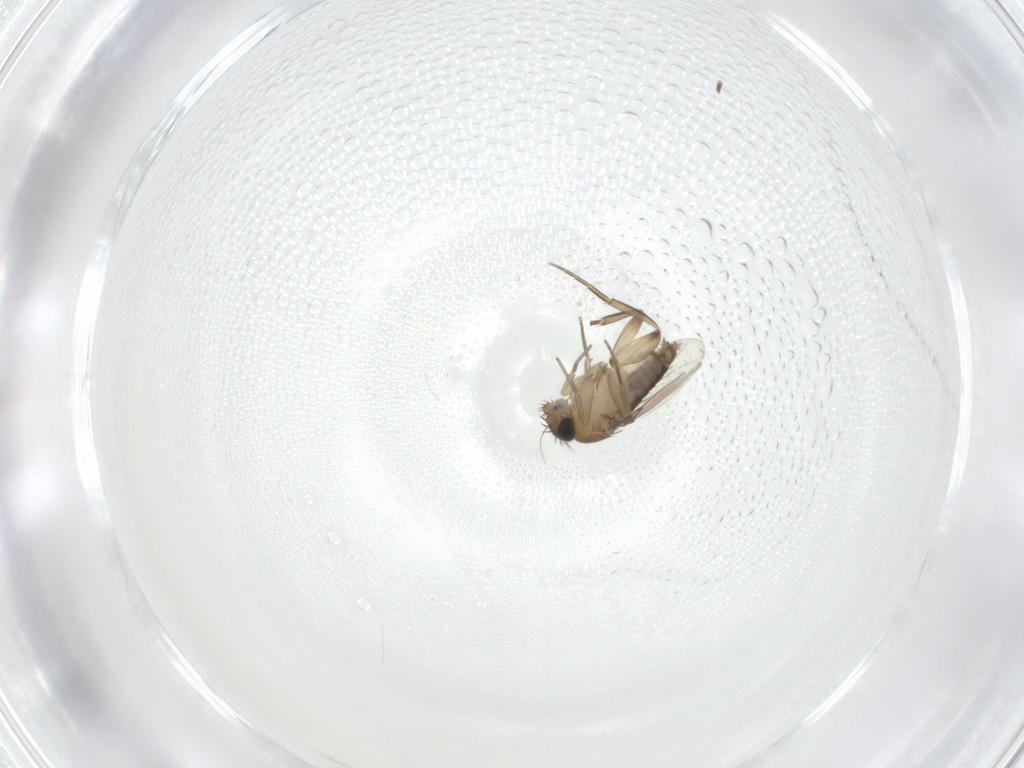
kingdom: Animalia
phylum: Arthropoda
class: Insecta
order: Diptera
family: Phoridae
